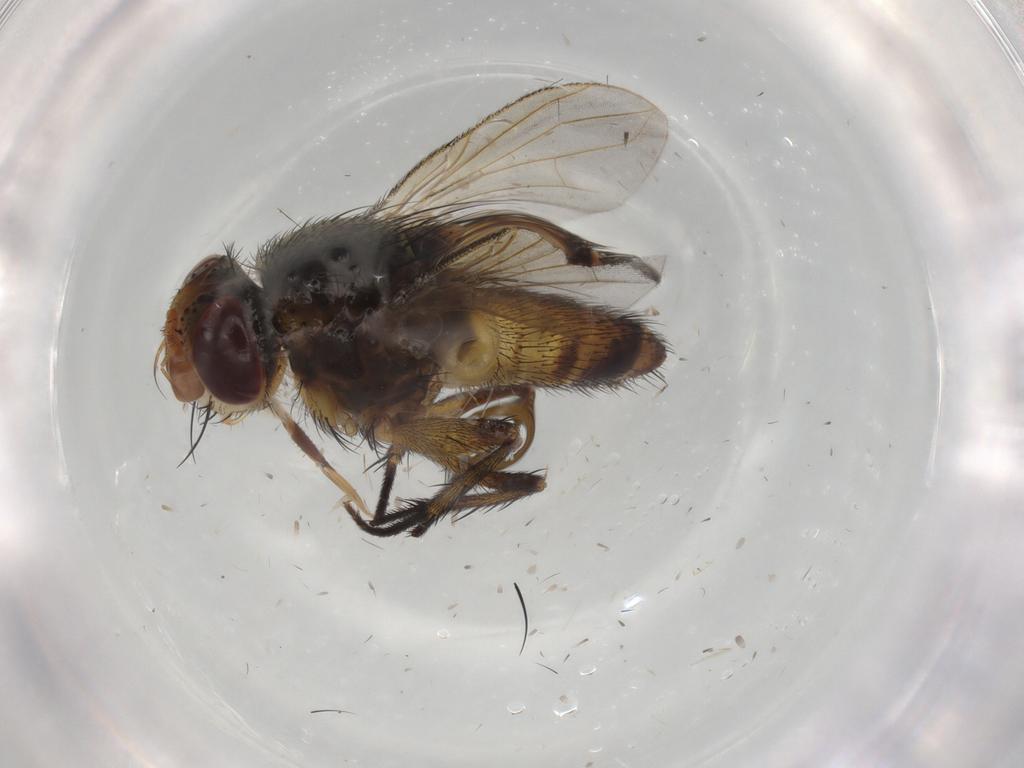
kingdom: Animalia
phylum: Arthropoda
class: Insecta
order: Diptera
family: Tachinidae
